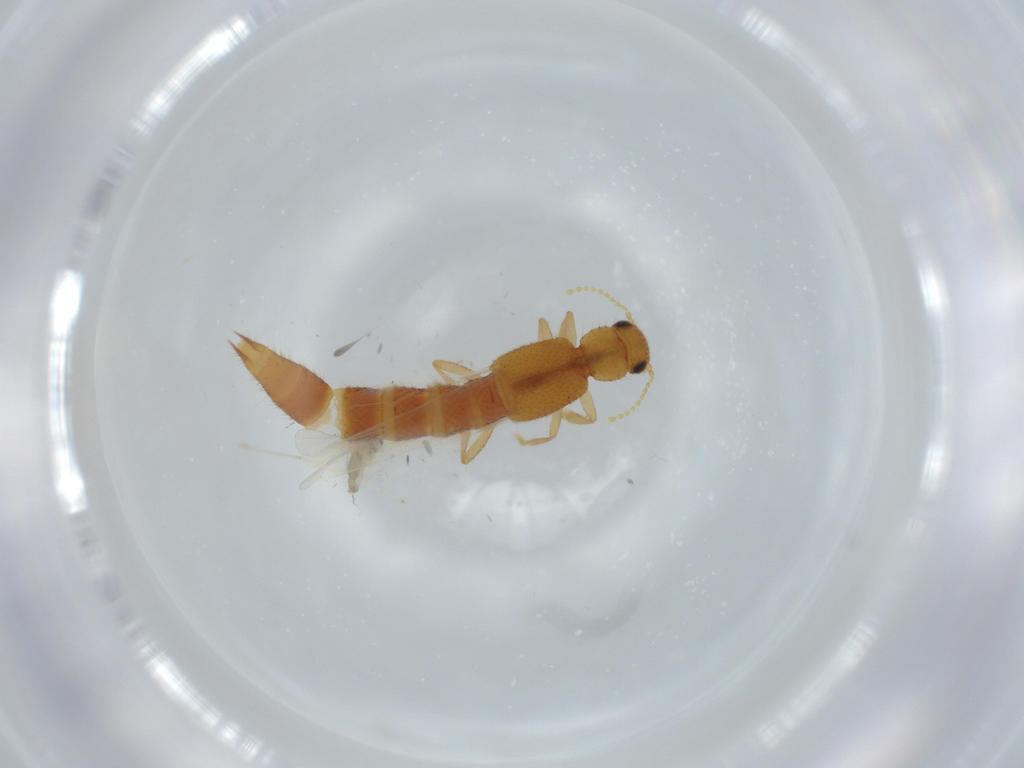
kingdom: Animalia
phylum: Arthropoda
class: Insecta
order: Coleoptera
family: Staphylinidae
